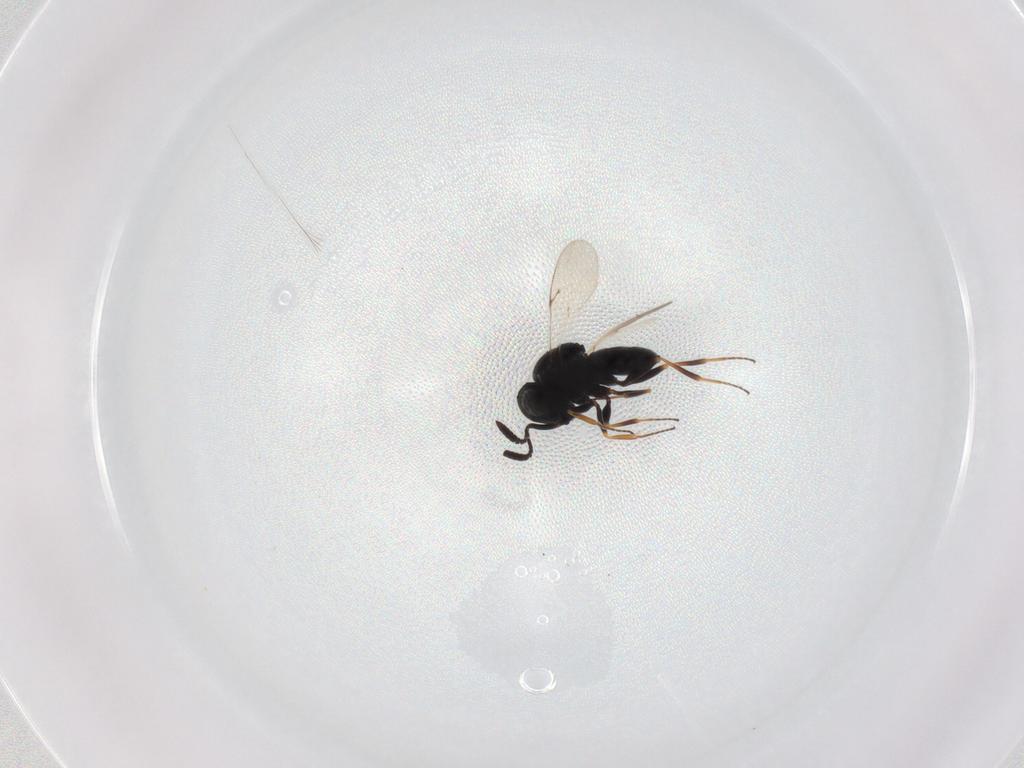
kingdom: Animalia
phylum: Arthropoda
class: Insecta
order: Hymenoptera
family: Scelionidae
